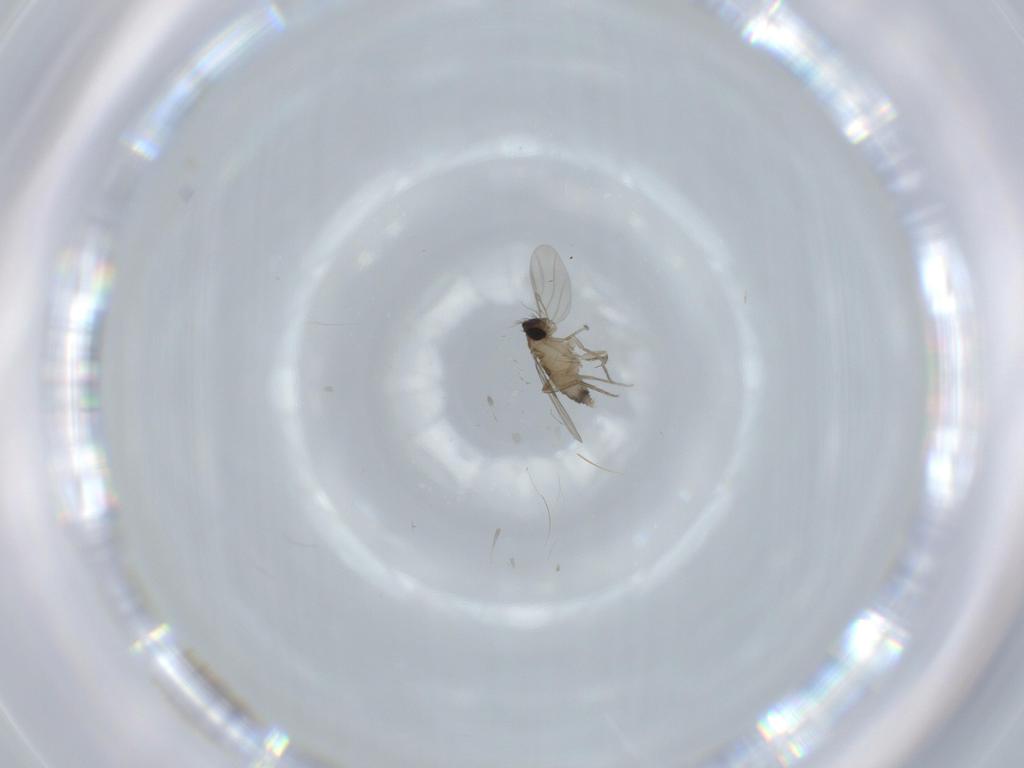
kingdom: Animalia
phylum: Arthropoda
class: Insecta
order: Diptera
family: Phoridae
